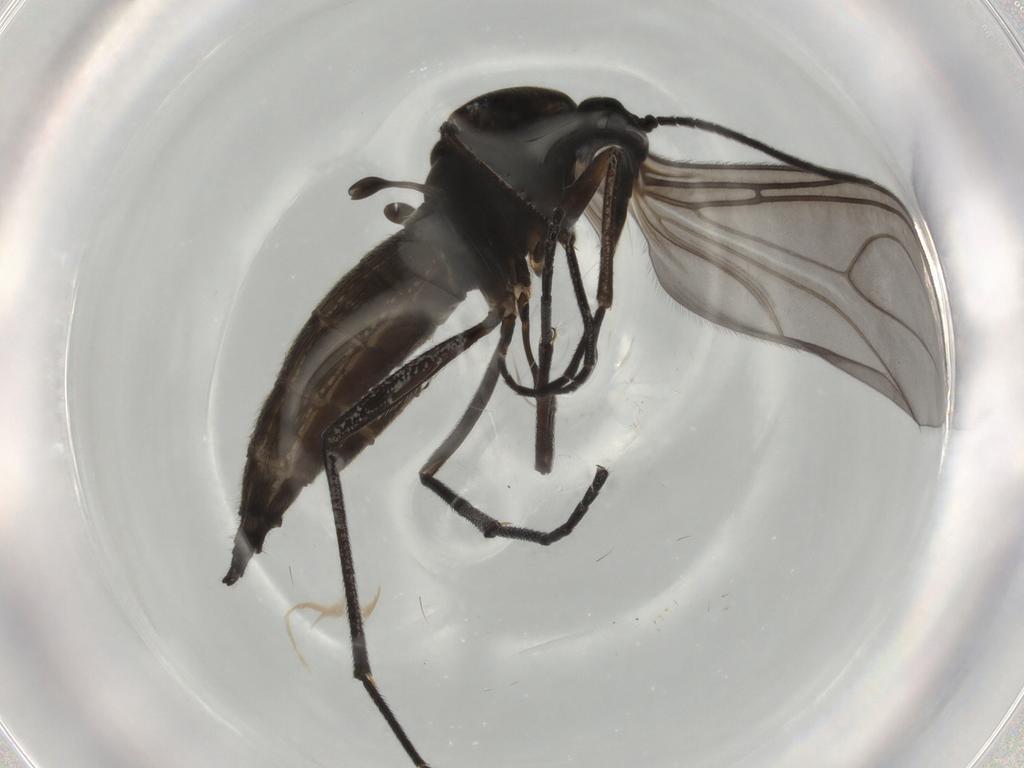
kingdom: Animalia
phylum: Arthropoda
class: Insecta
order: Diptera
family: Sciaridae
